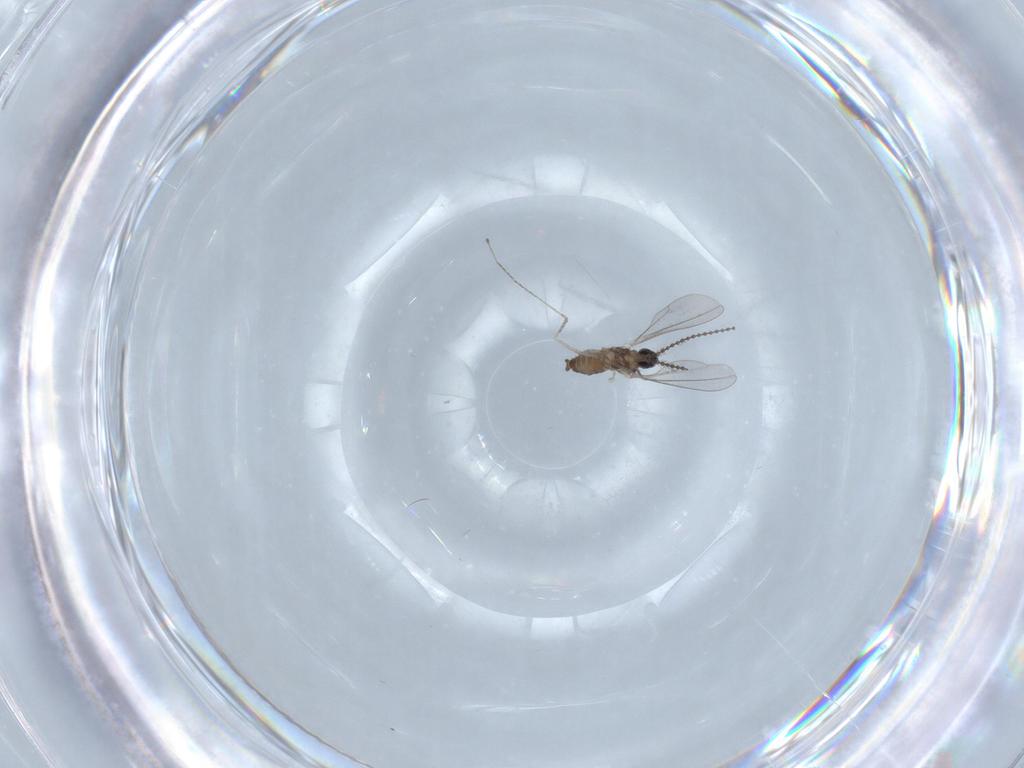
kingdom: Animalia
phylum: Arthropoda
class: Insecta
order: Diptera
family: Cecidomyiidae
